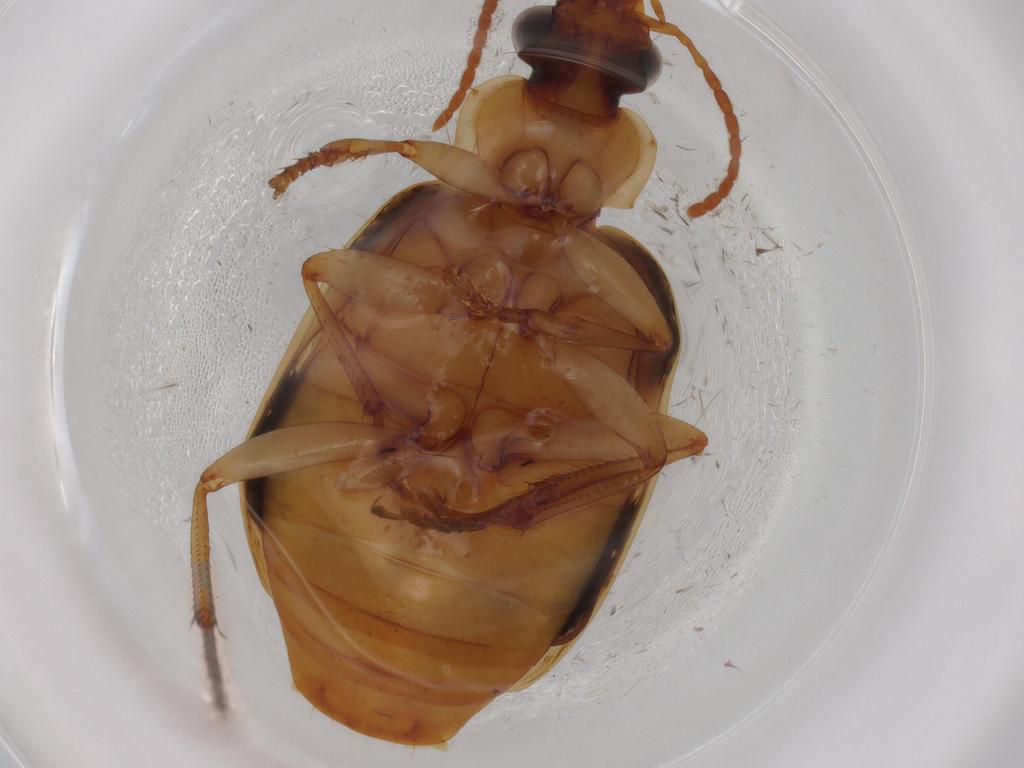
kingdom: Animalia
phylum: Arthropoda
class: Insecta
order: Coleoptera
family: Carabidae
